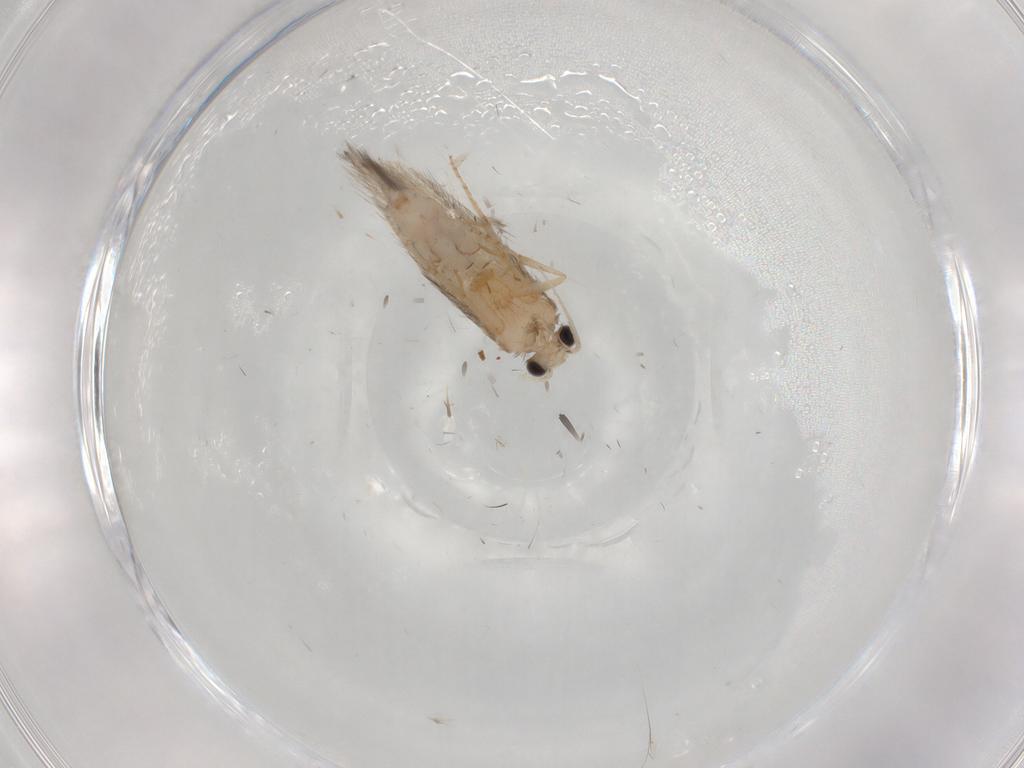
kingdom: Animalia
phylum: Arthropoda
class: Insecta
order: Trichoptera
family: Hydroptilidae
